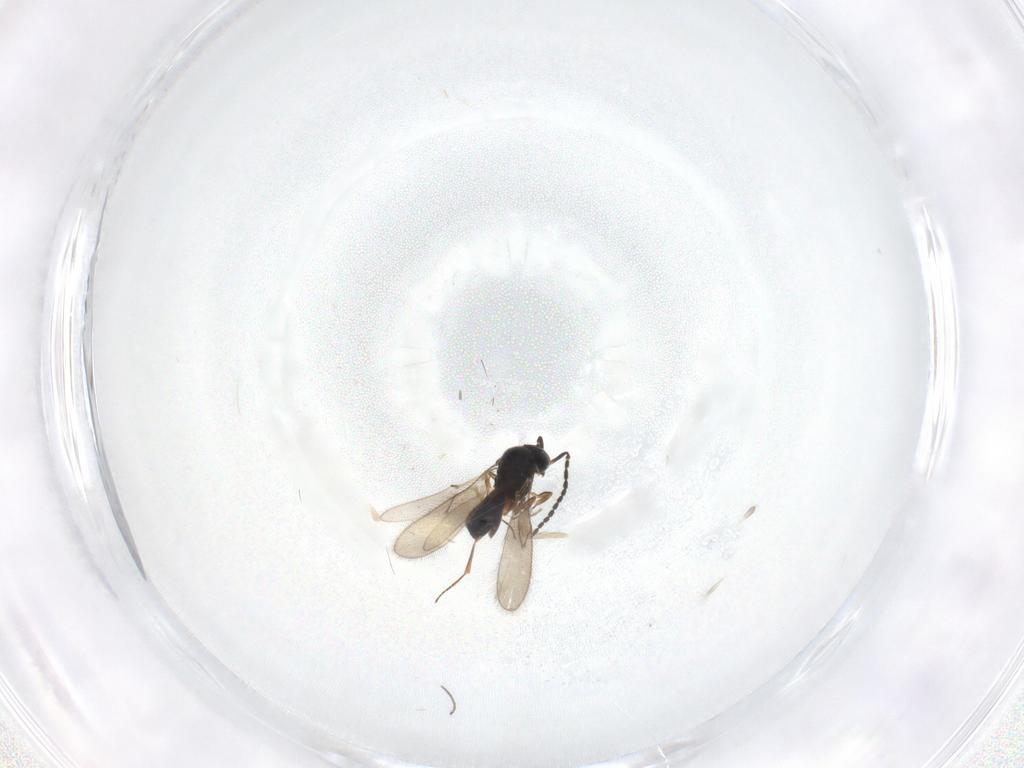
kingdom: Animalia
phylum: Arthropoda
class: Insecta
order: Hymenoptera
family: Scelionidae
